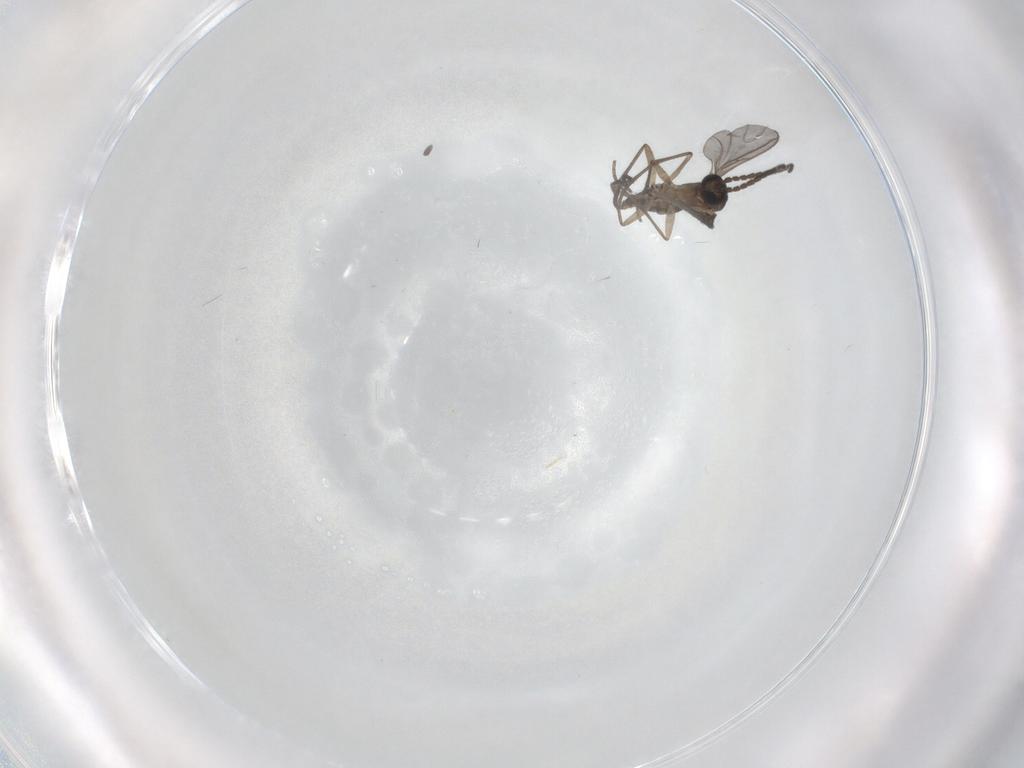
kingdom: Animalia
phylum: Arthropoda
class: Insecta
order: Diptera
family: Sciaridae
